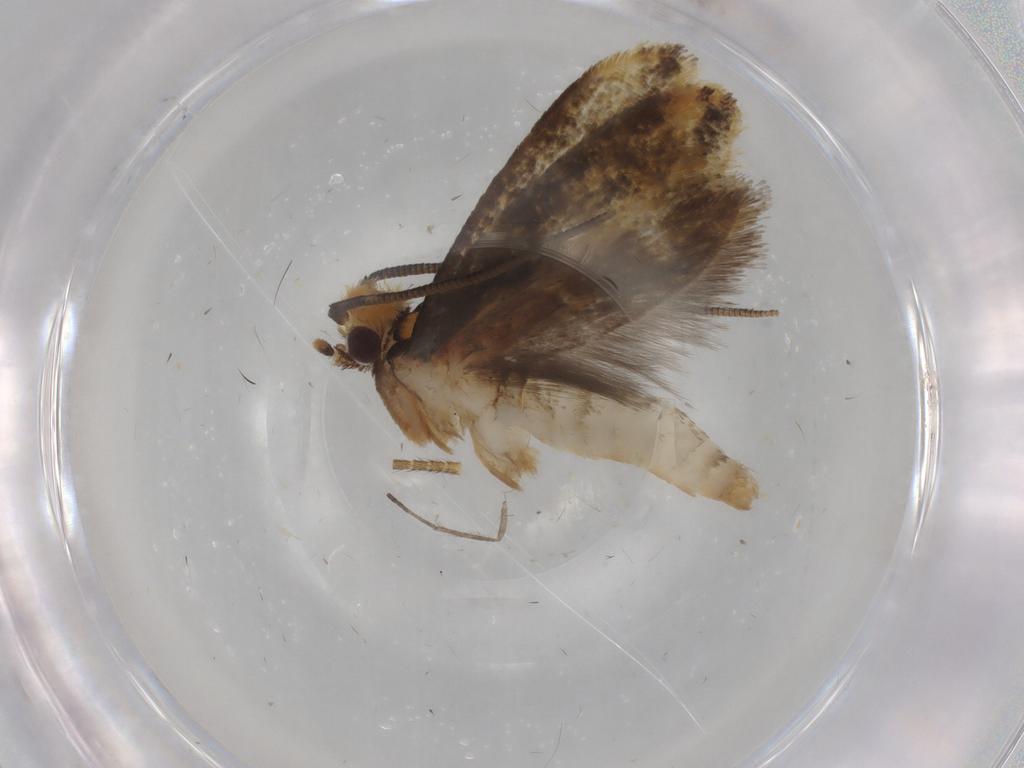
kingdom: Animalia
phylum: Arthropoda
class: Insecta
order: Lepidoptera
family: Tineidae
